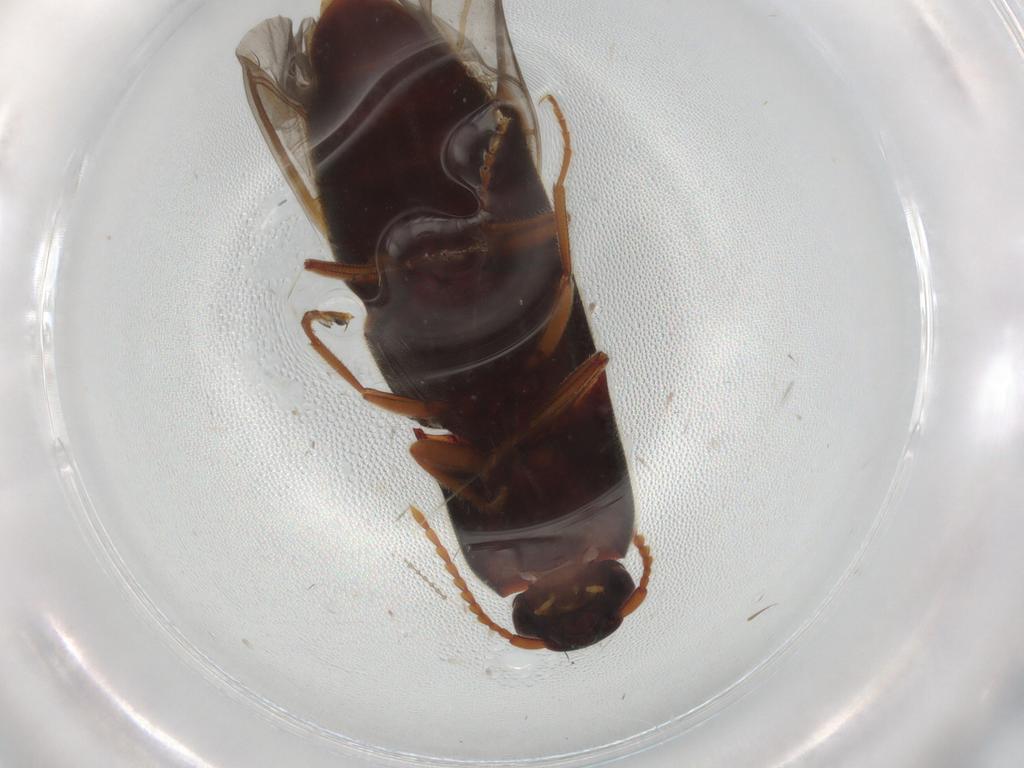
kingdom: Animalia
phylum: Arthropoda
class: Insecta
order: Coleoptera
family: Elateridae
